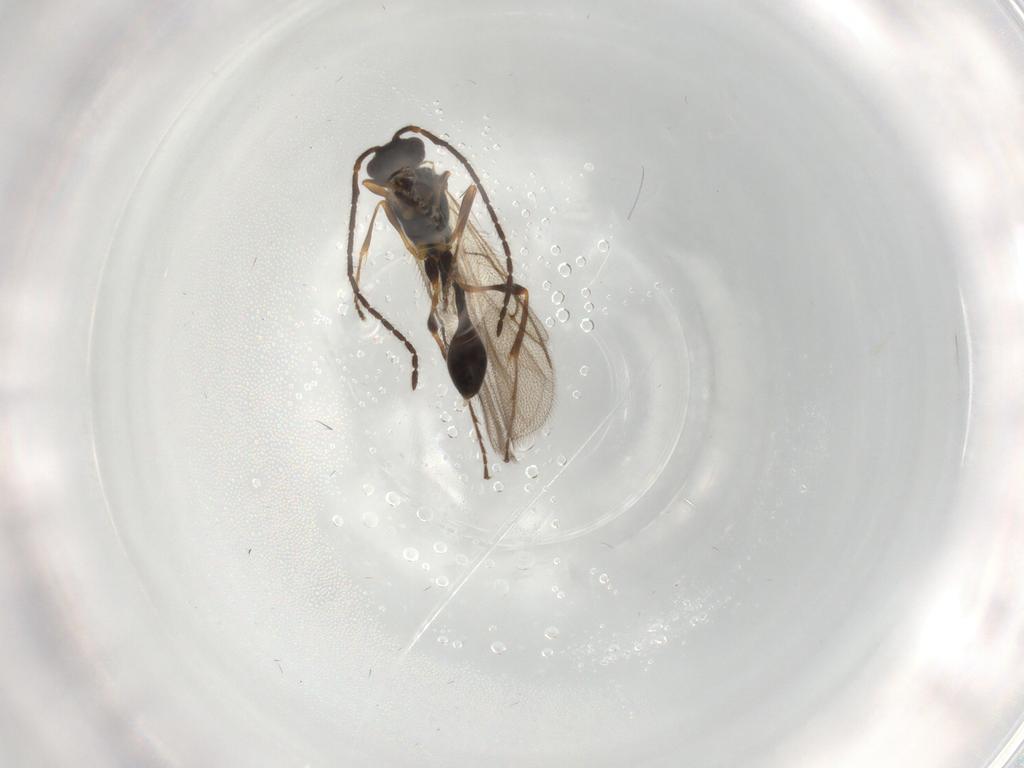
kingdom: Animalia
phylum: Arthropoda
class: Insecta
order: Hymenoptera
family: Diapriidae
